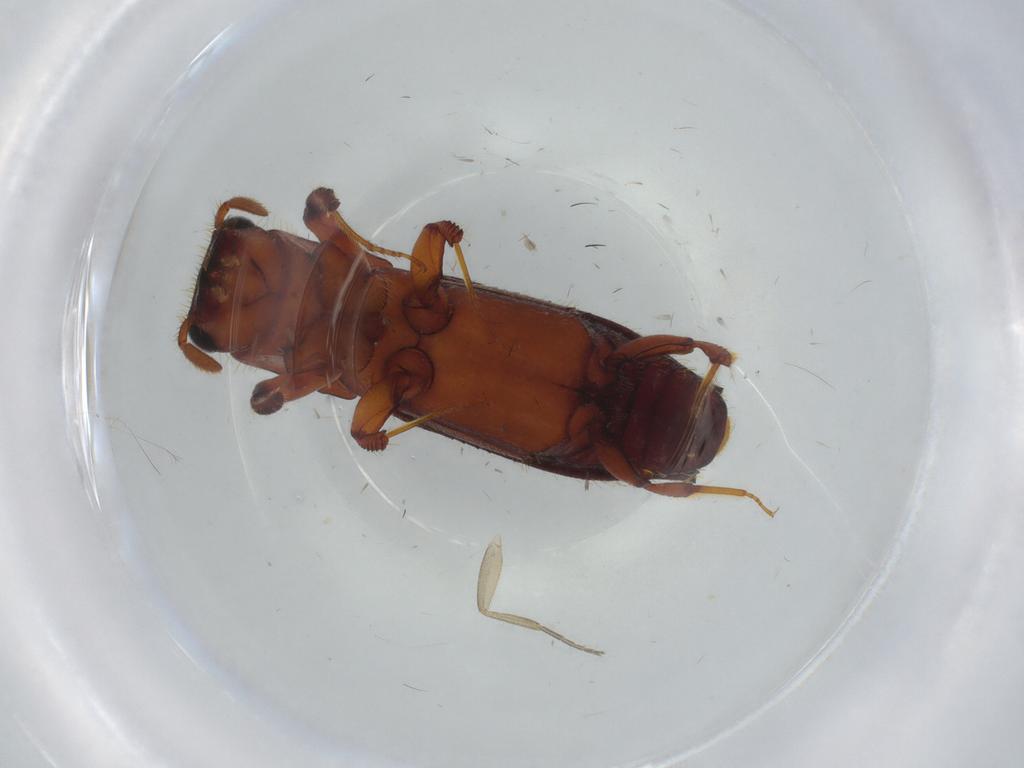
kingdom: Animalia
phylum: Arthropoda
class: Insecta
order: Coleoptera
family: Curculionidae
